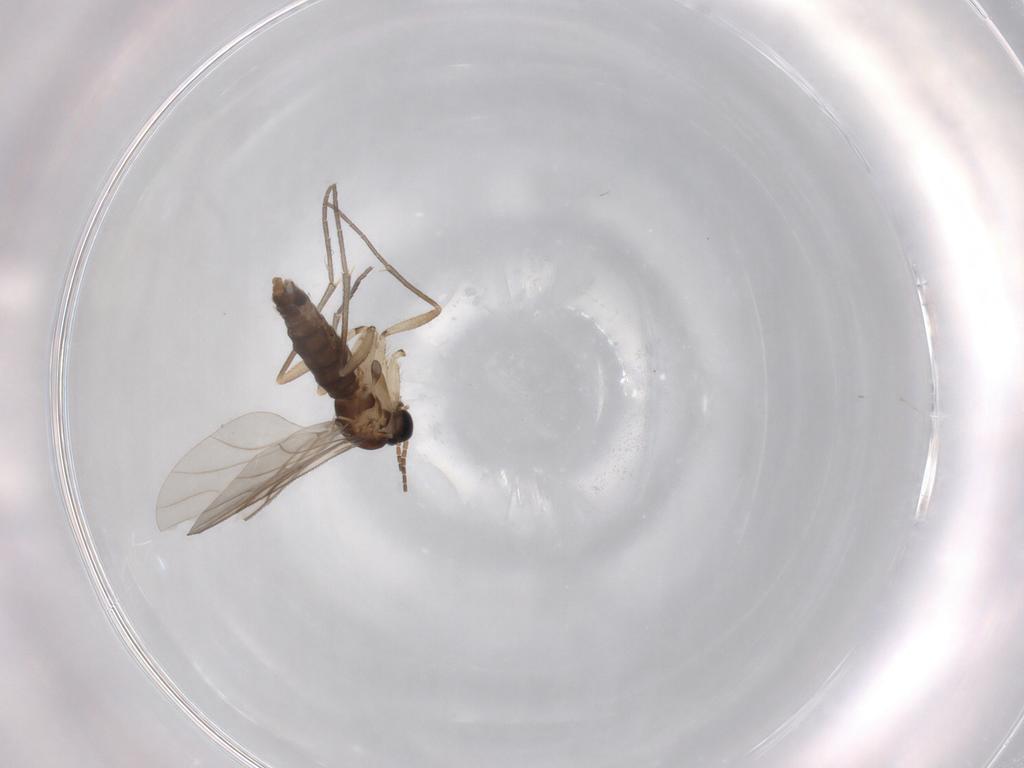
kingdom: Animalia
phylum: Arthropoda
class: Insecta
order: Diptera
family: Sciaridae
